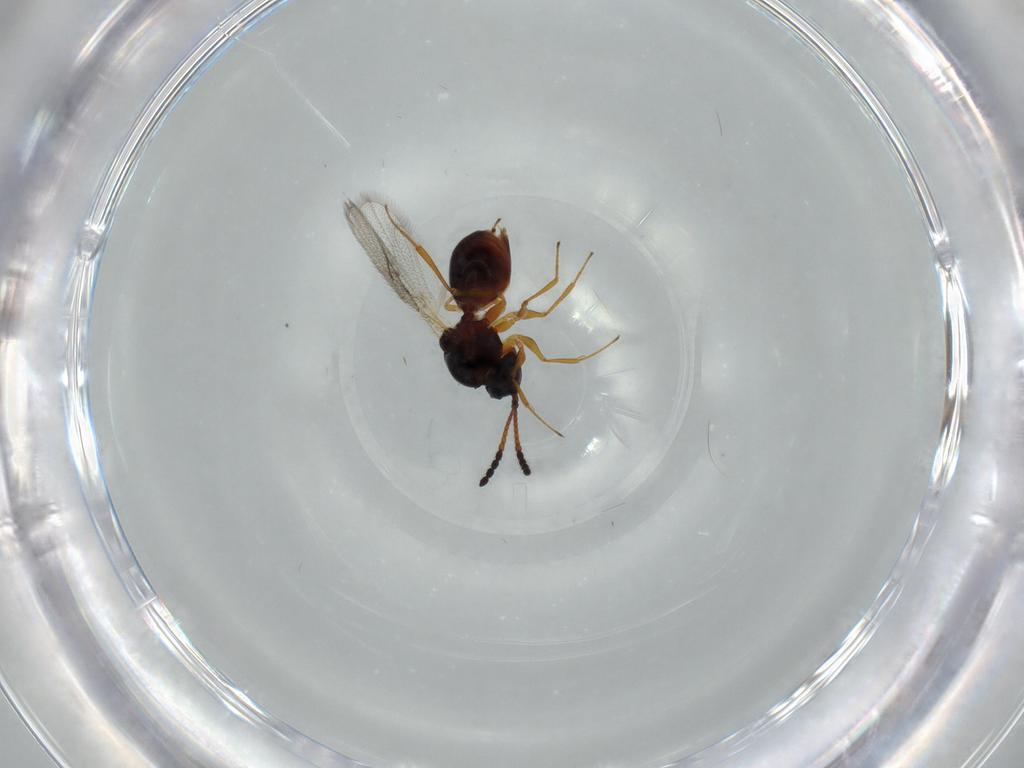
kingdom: Animalia
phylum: Arthropoda
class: Insecta
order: Hymenoptera
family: Figitidae
